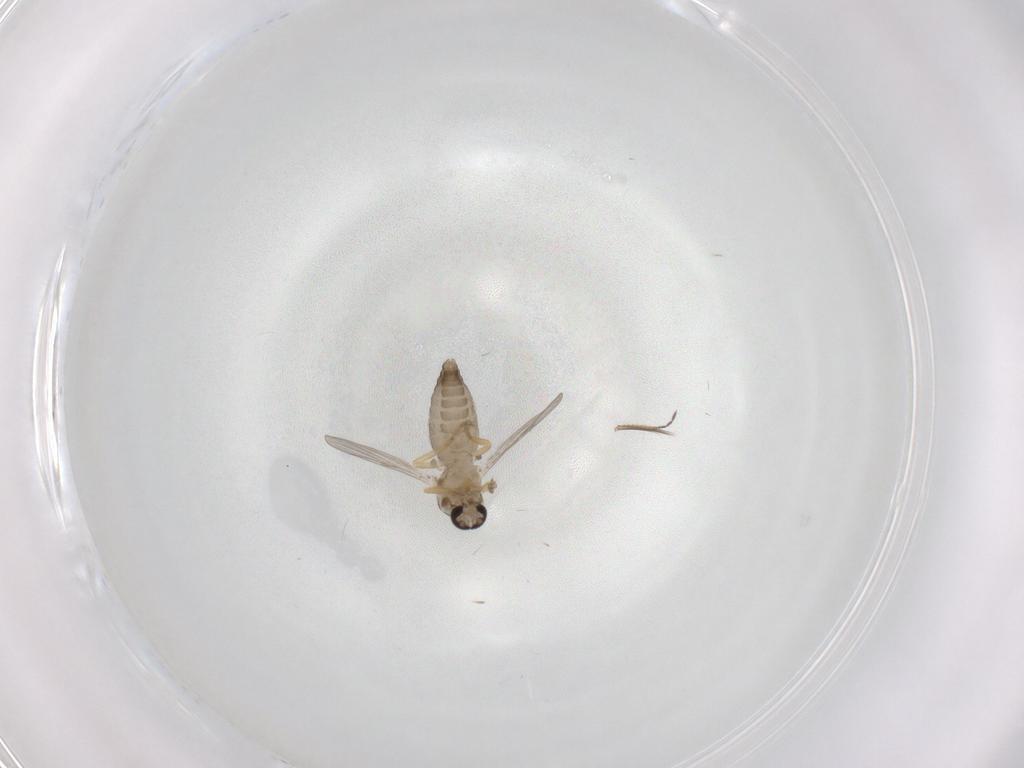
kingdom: Animalia
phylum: Arthropoda
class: Insecta
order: Diptera
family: Ceratopogonidae
